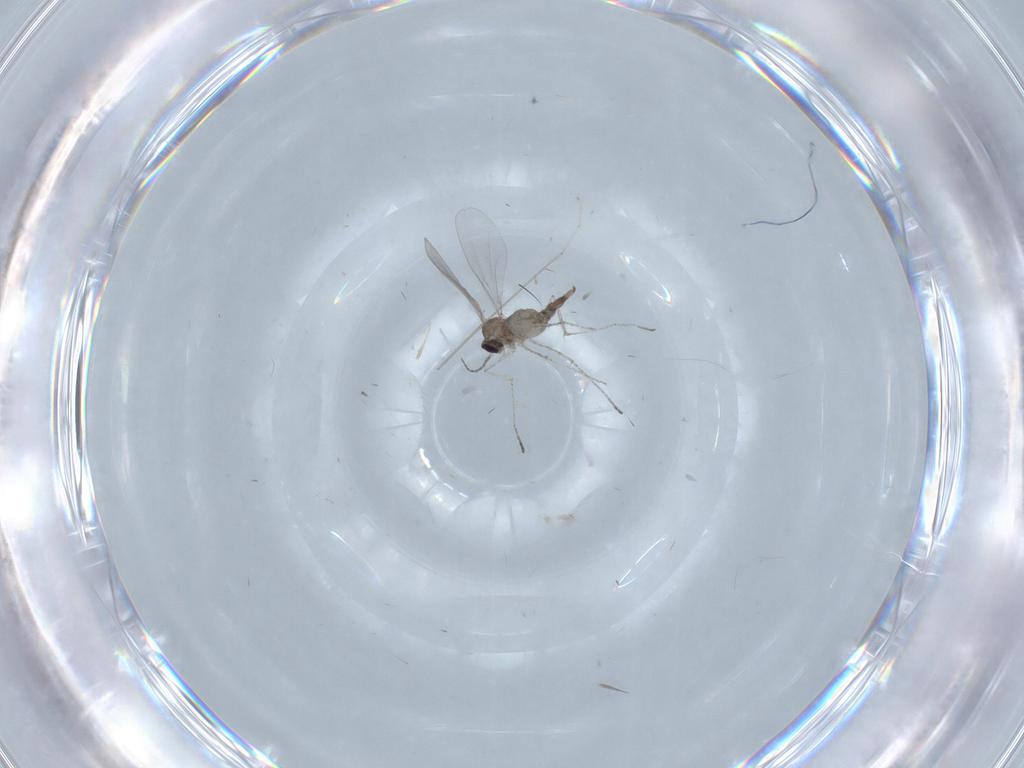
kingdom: Animalia
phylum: Arthropoda
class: Insecta
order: Diptera
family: Cecidomyiidae
